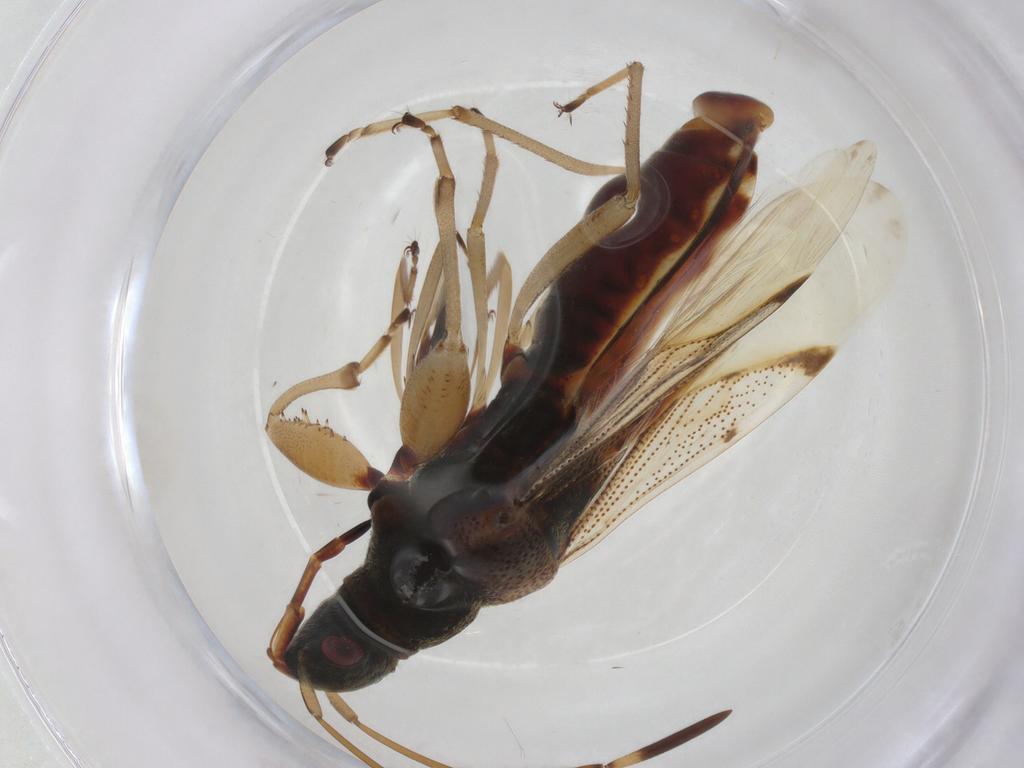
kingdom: Animalia
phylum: Arthropoda
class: Insecta
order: Hemiptera
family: Rhyparochromidae
